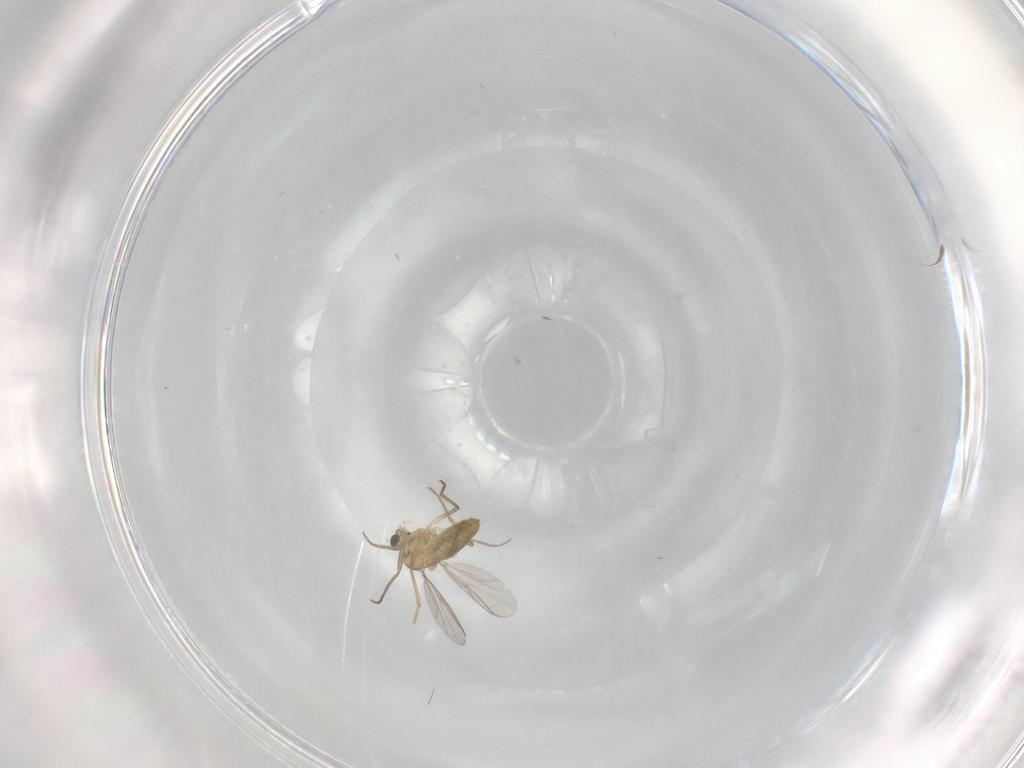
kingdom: Animalia
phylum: Arthropoda
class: Insecta
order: Diptera
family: Chironomidae
